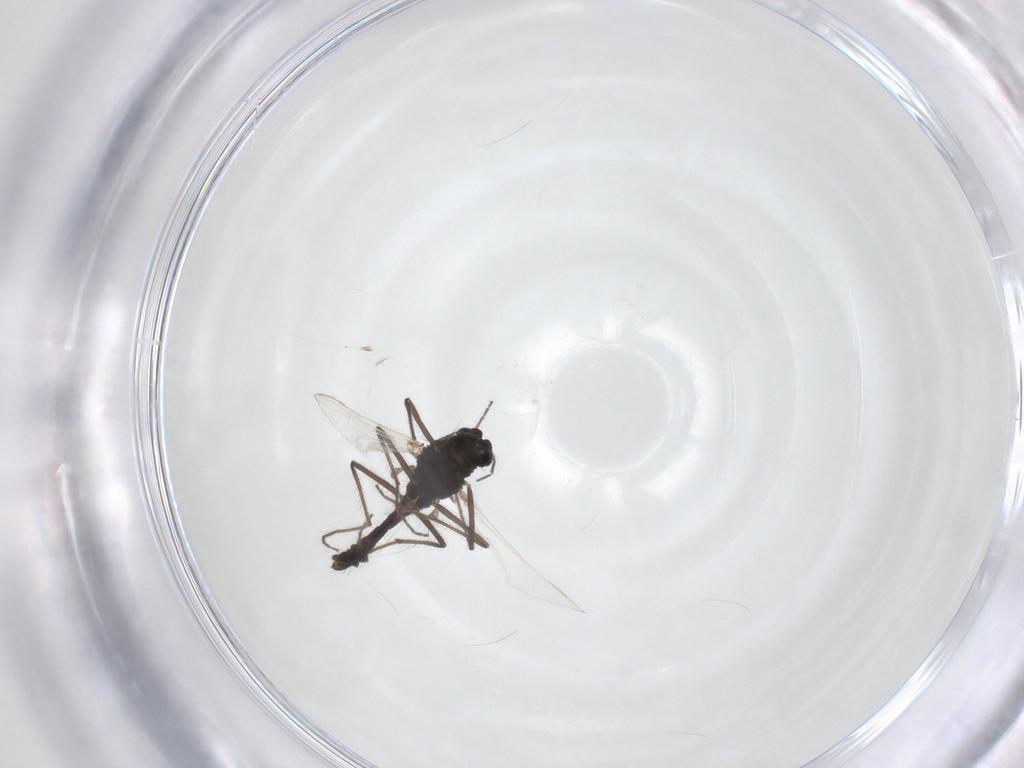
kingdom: Animalia
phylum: Arthropoda
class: Insecta
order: Diptera
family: Chironomidae
